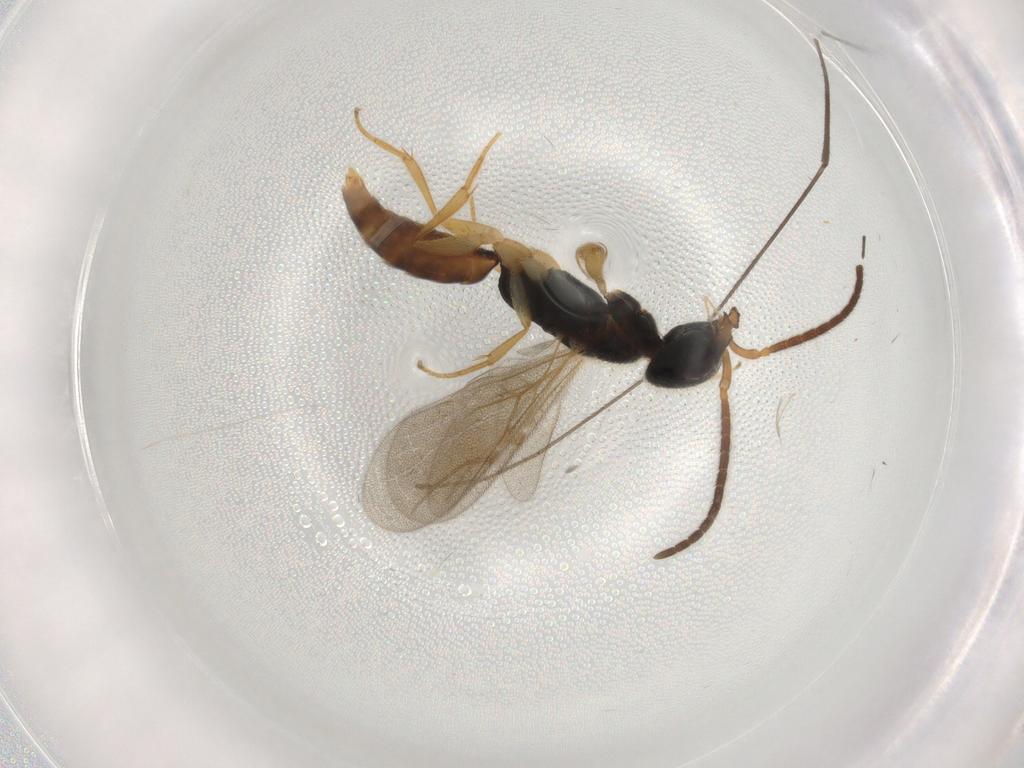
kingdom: Animalia
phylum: Arthropoda
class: Insecta
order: Hymenoptera
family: Bethylidae
